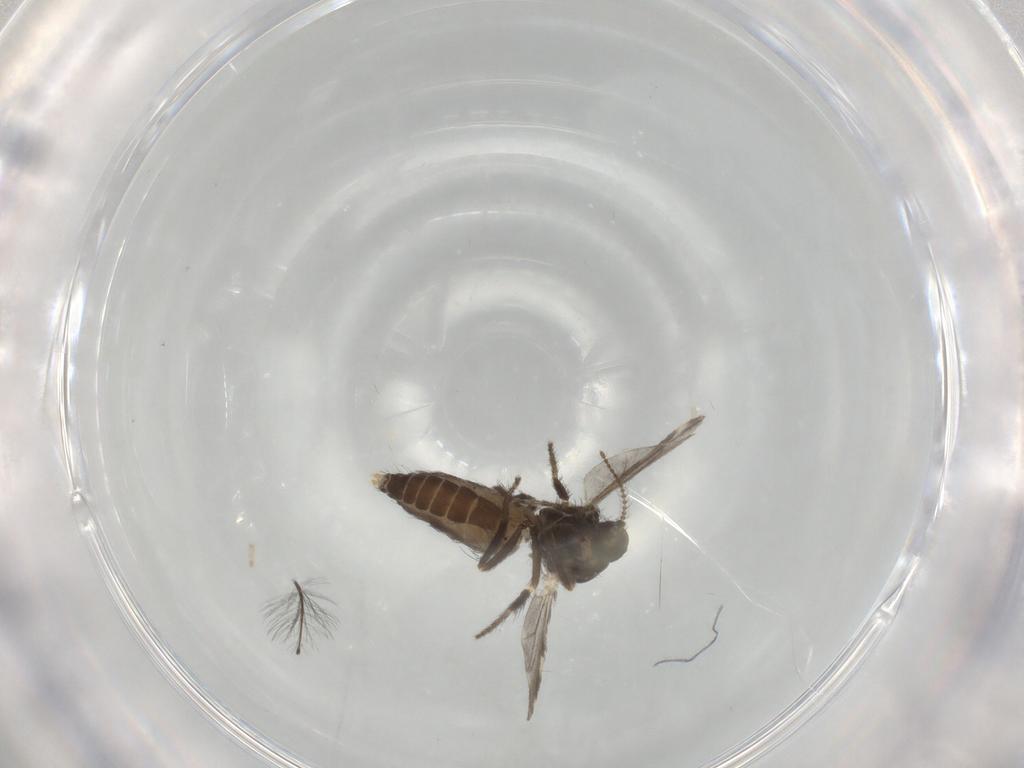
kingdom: Animalia
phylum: Arthropoda
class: Insecta
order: Diptera
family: Ceratopogonidae
